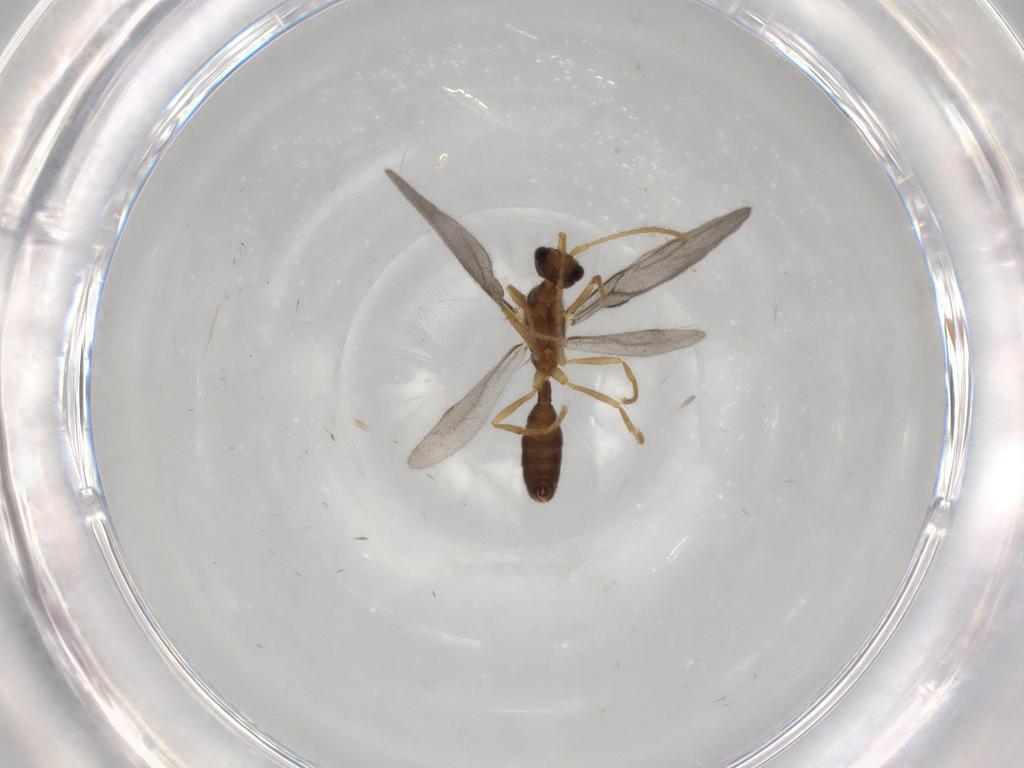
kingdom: Animalia
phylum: Arthropoda
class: Insecta
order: Hymenoptera
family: Formicidae
